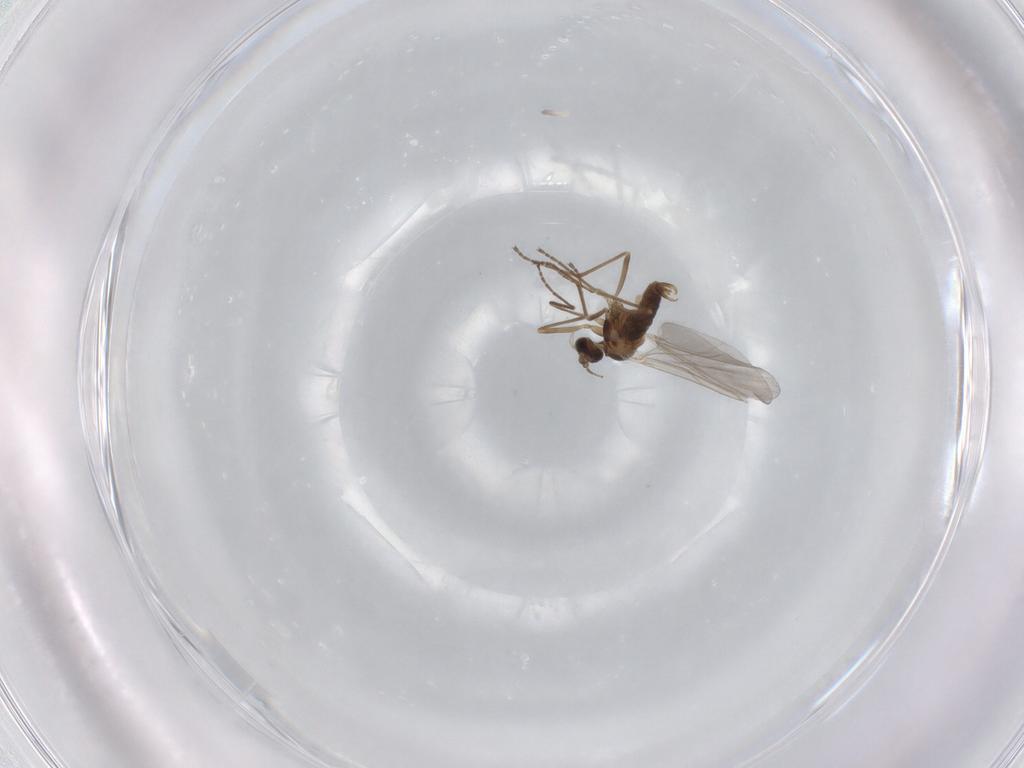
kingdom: Animalia
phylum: Arthropoda
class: Insecta
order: Diptera
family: Cecidomyiidae
